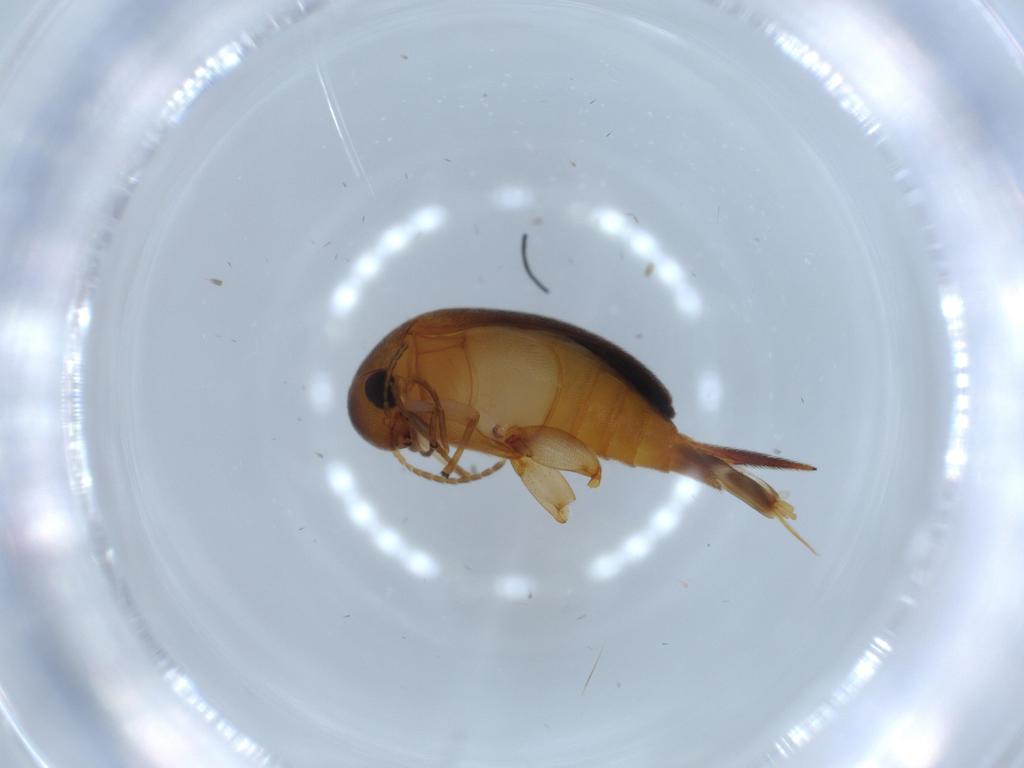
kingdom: Animalia
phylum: Arthropoda
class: Insecta
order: Coleoptera
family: Mordellidae
